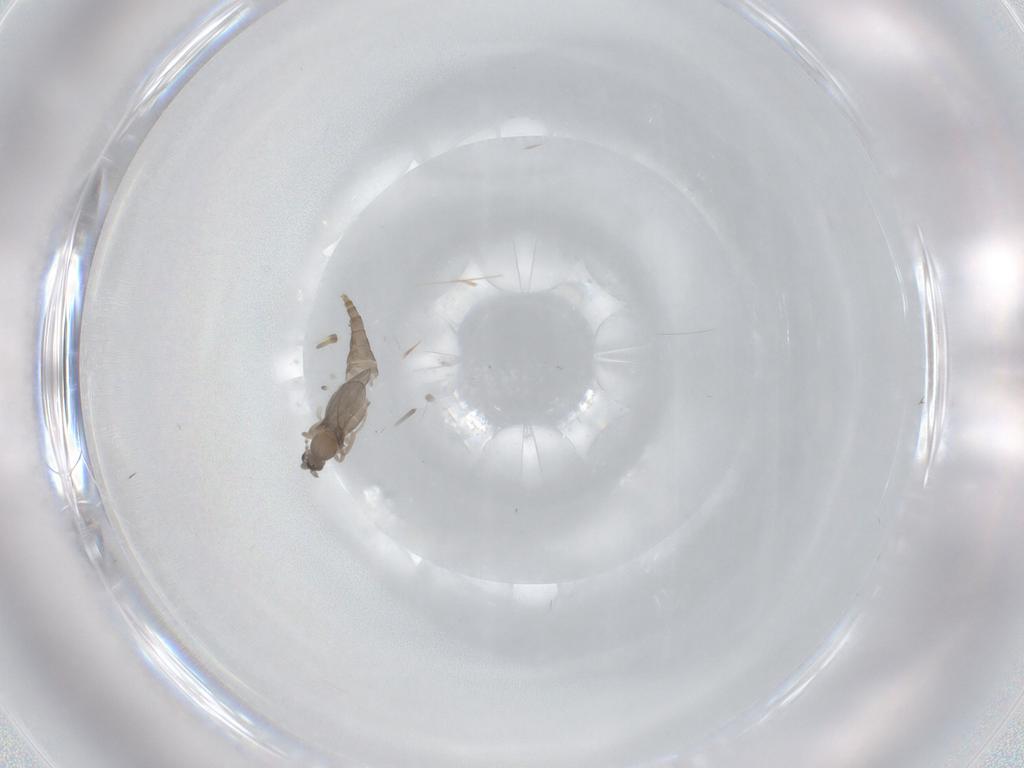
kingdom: Animalia
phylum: Arthropoda
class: Insecta
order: Diptera
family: Cecidomyiidae
